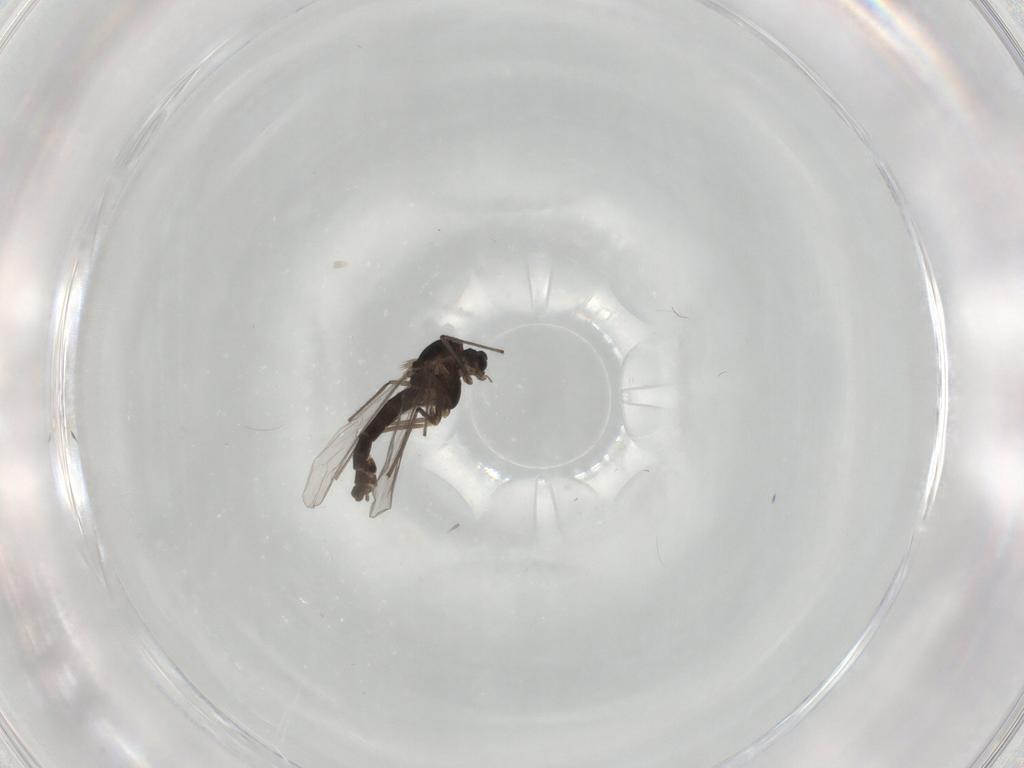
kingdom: Animalia
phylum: Arthropoda
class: Insecta
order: Diptera
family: Chironomidae
